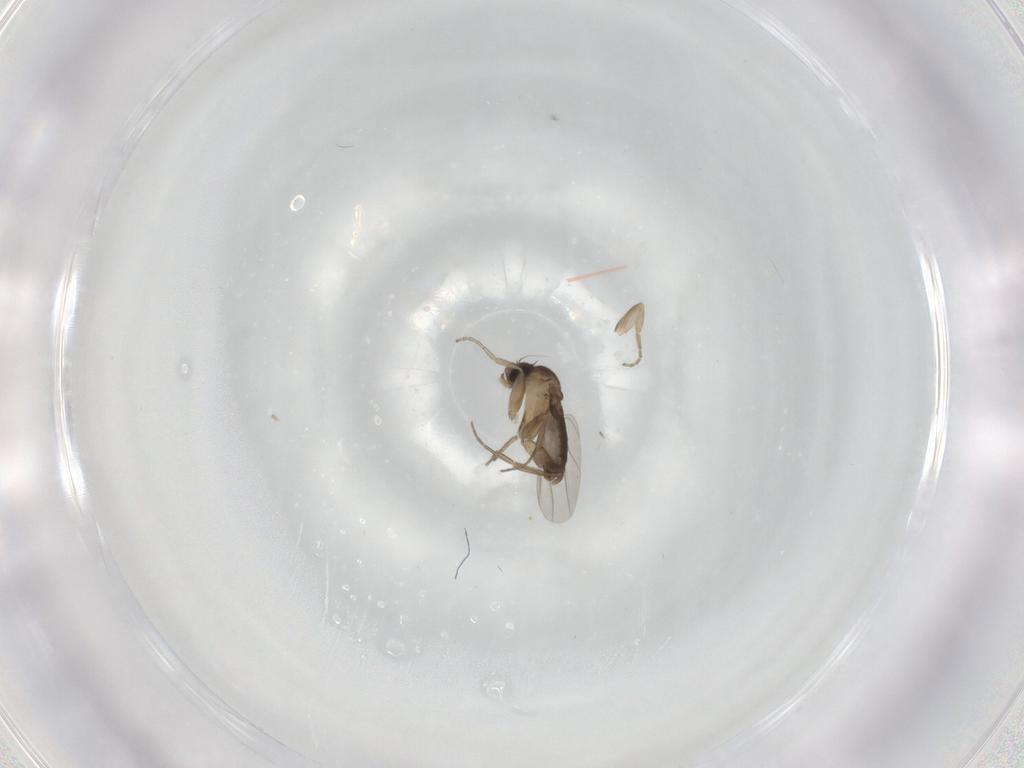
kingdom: Animalia
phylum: Arthropoda
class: Insecta
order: Diptera
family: Phoridae
